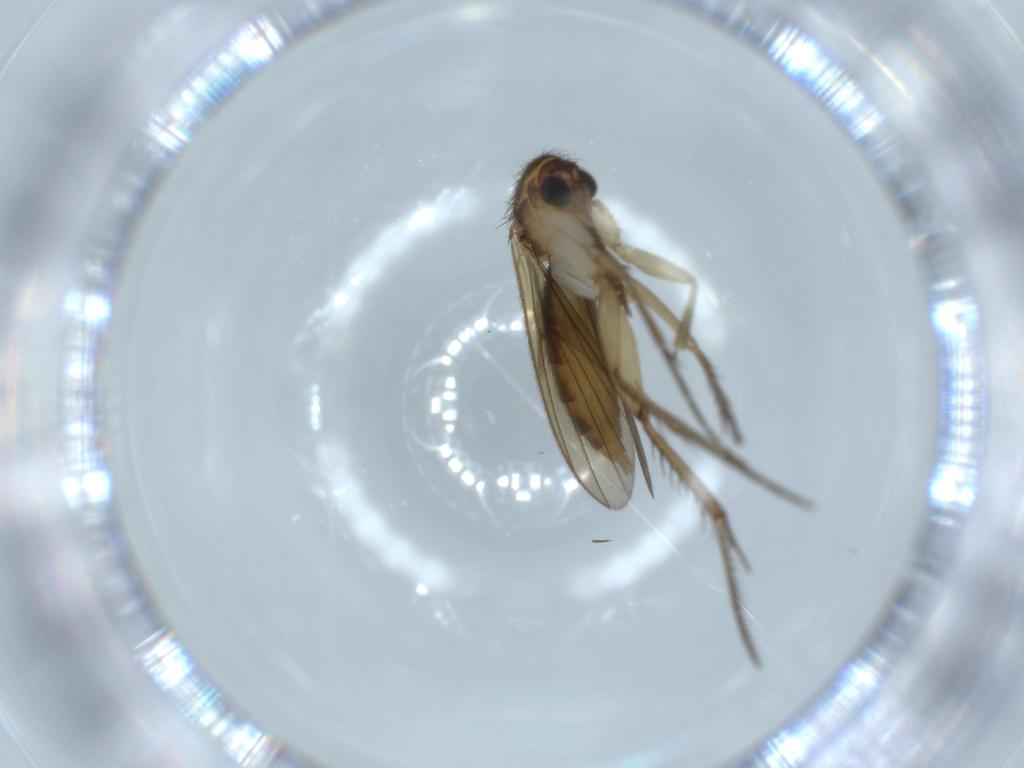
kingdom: Animalia
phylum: Arthropoda
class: Insecta
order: Diptera
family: Mycetophilidae
